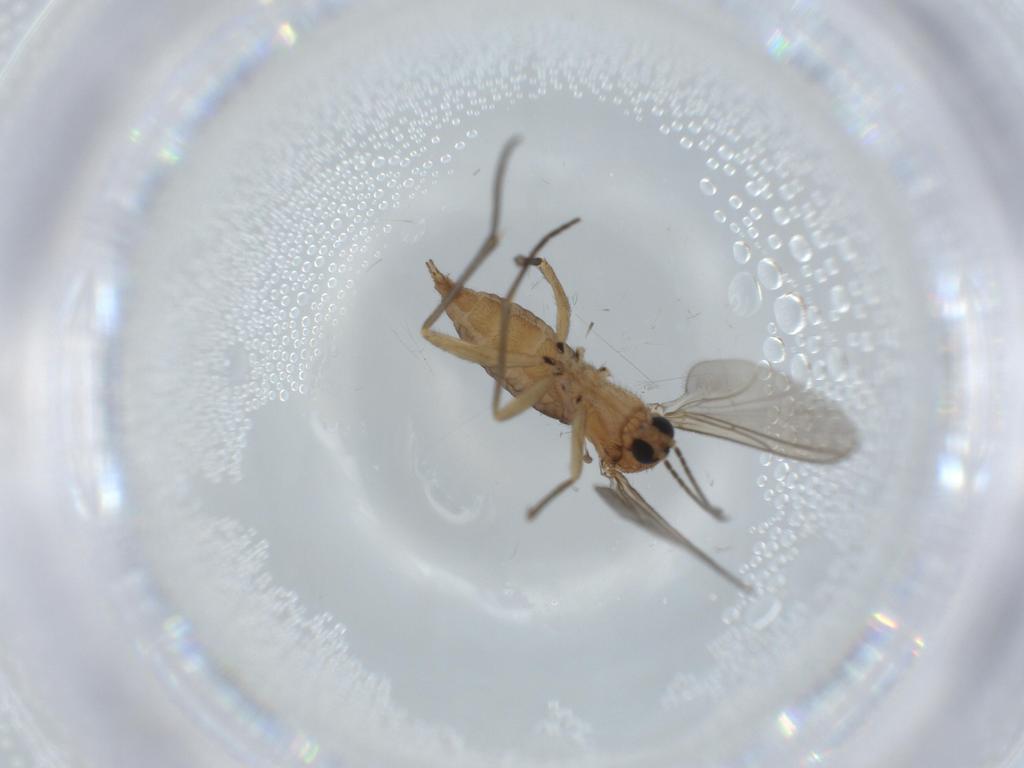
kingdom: Animalia
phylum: Arthropoda
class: Insecta
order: Diptera
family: Sciaridae
